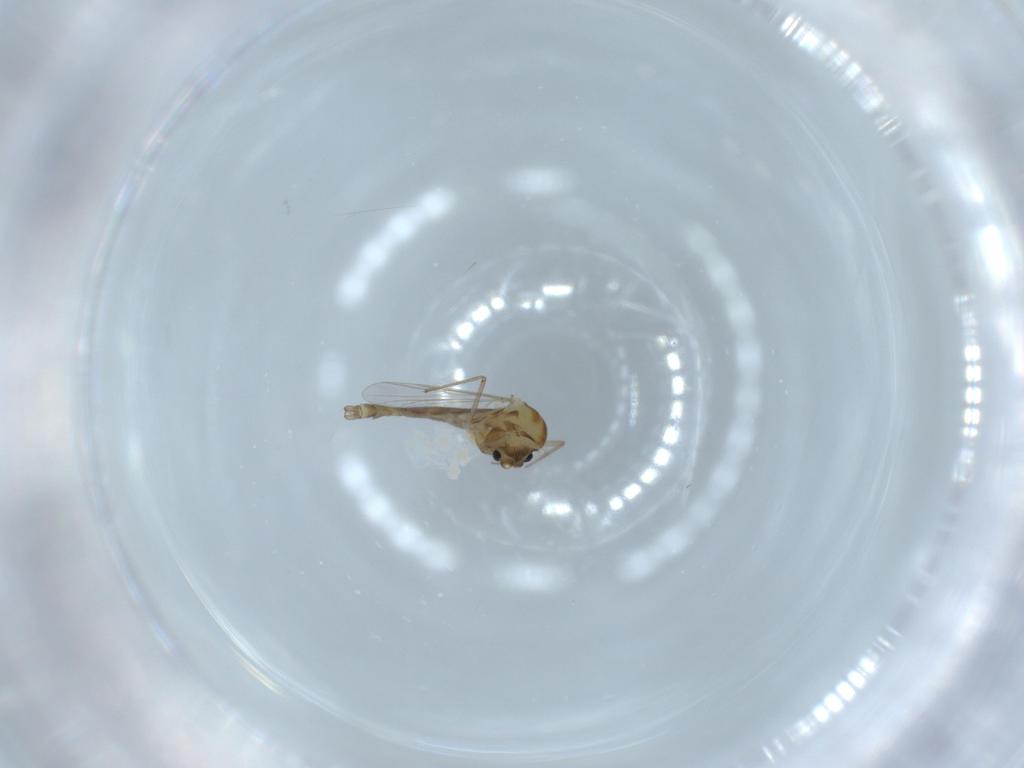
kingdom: Animalia
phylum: Arthropoda
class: Insecta
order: Diptera
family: Chironomidae
